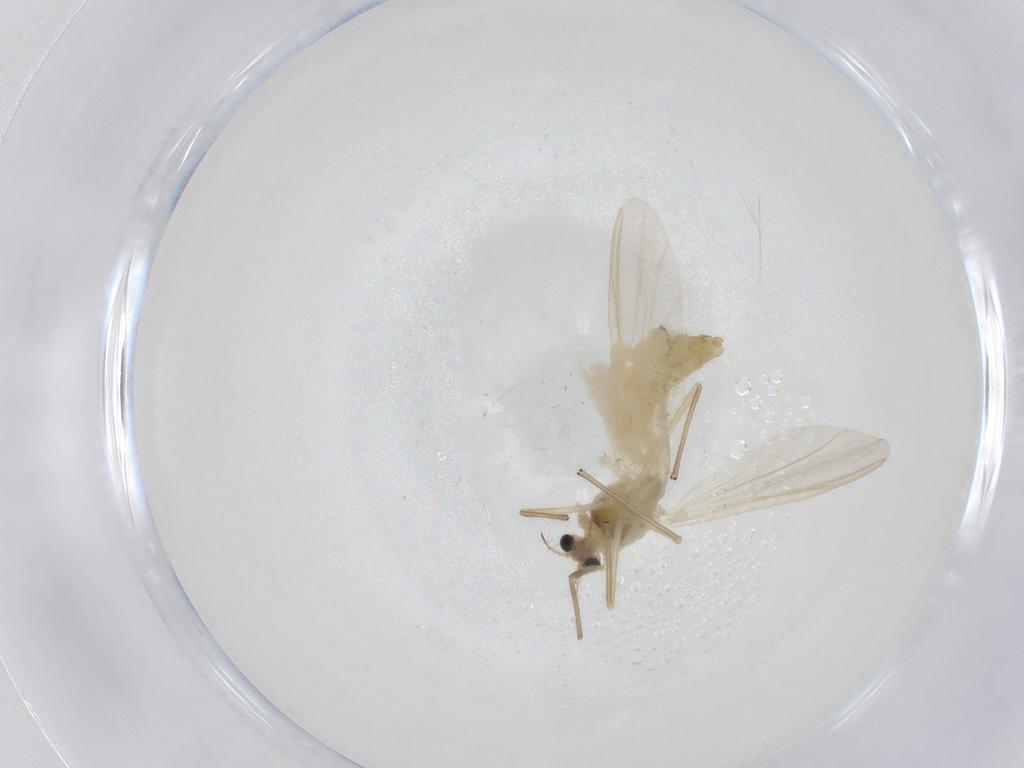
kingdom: Animalia
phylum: Arthropoda
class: Insecta
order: Diptera
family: Chironomidae
